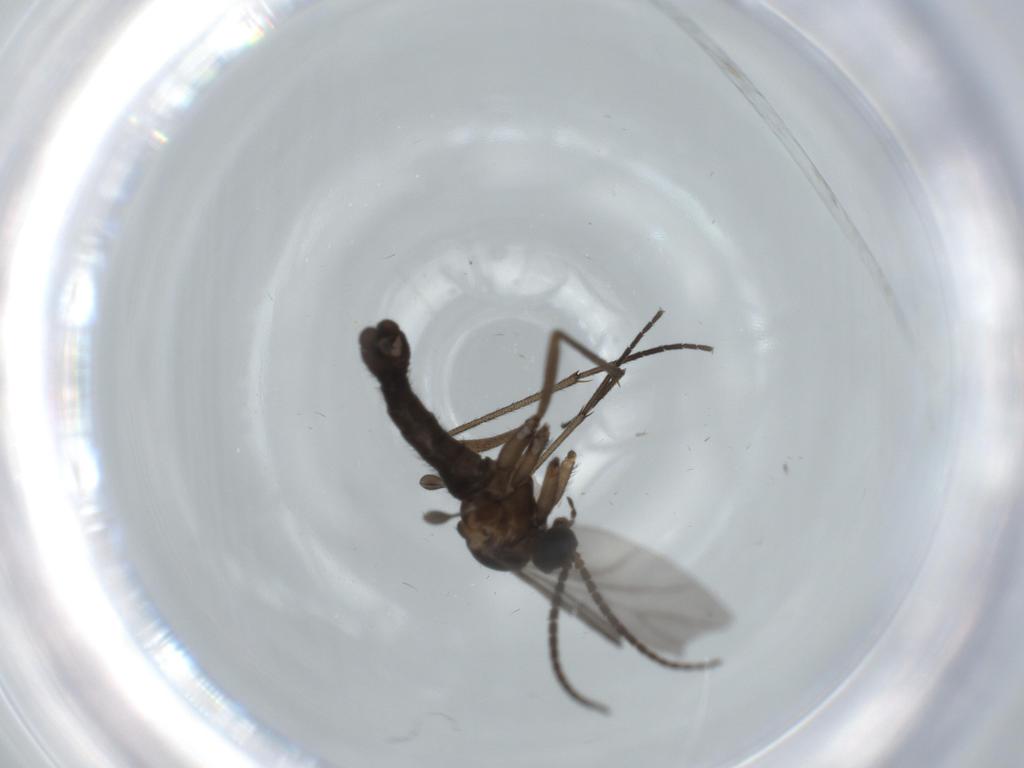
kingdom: Animalia
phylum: Arthropoda
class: Insecta
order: Diptera
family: Sciaridae
